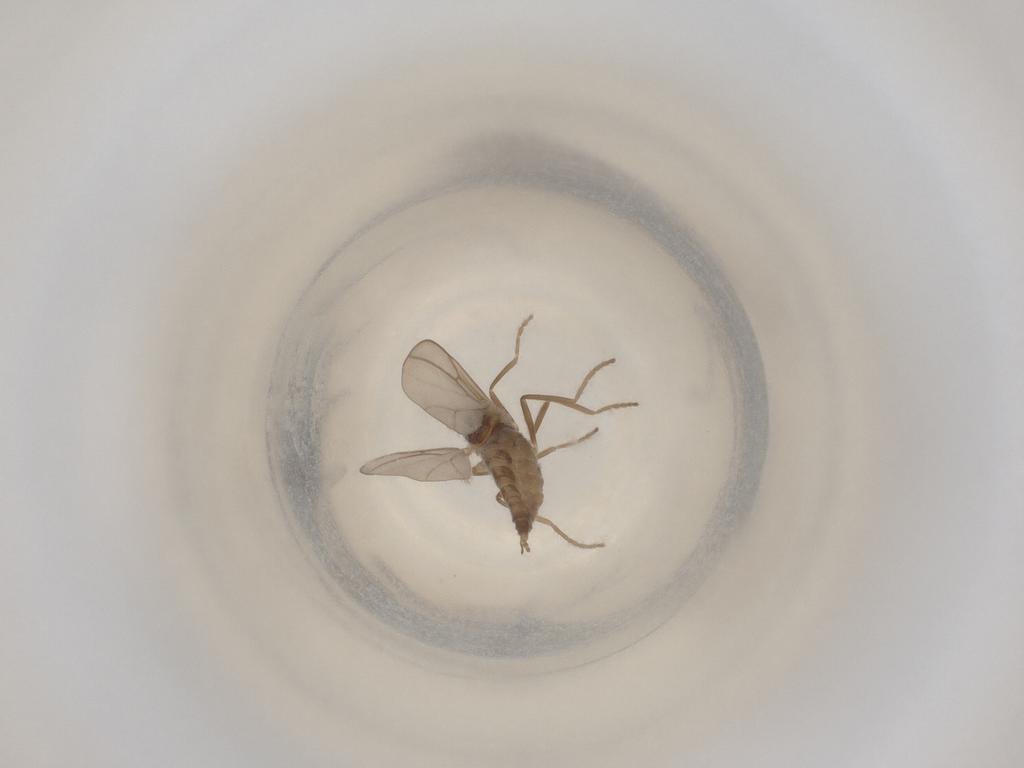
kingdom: Animalia
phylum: Arthropoda
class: Insecta
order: Diptera
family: Cecidomyiidae
